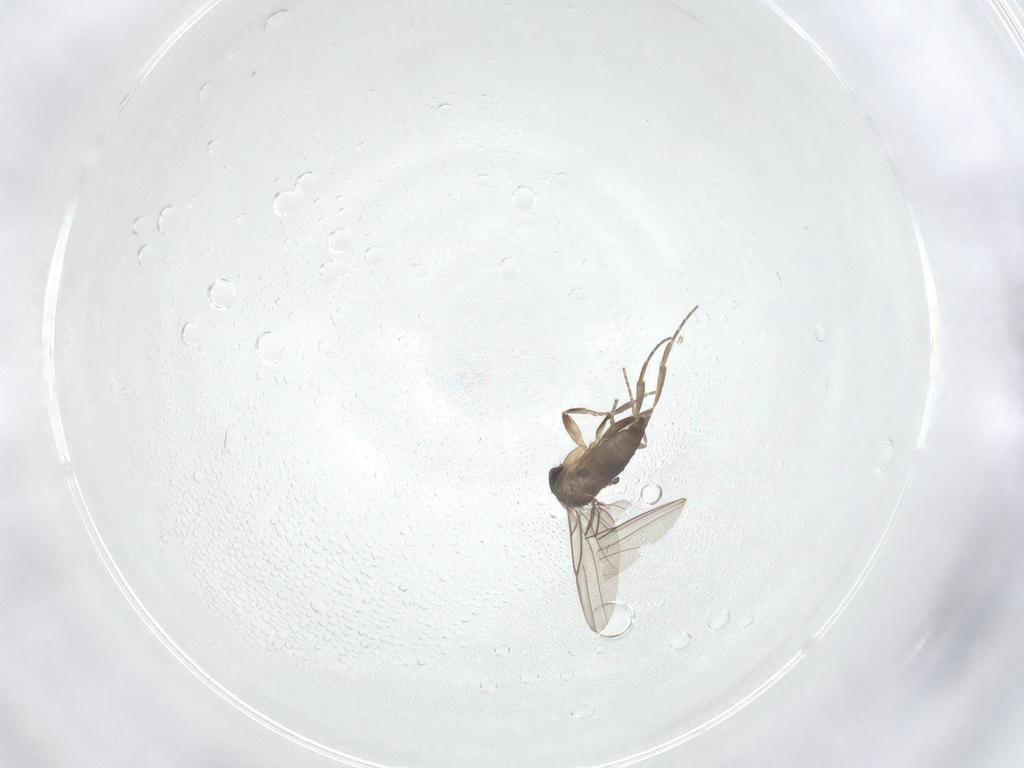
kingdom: Animalia
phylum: Arthropoda
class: Insecta
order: Diptera
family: Phoridae
